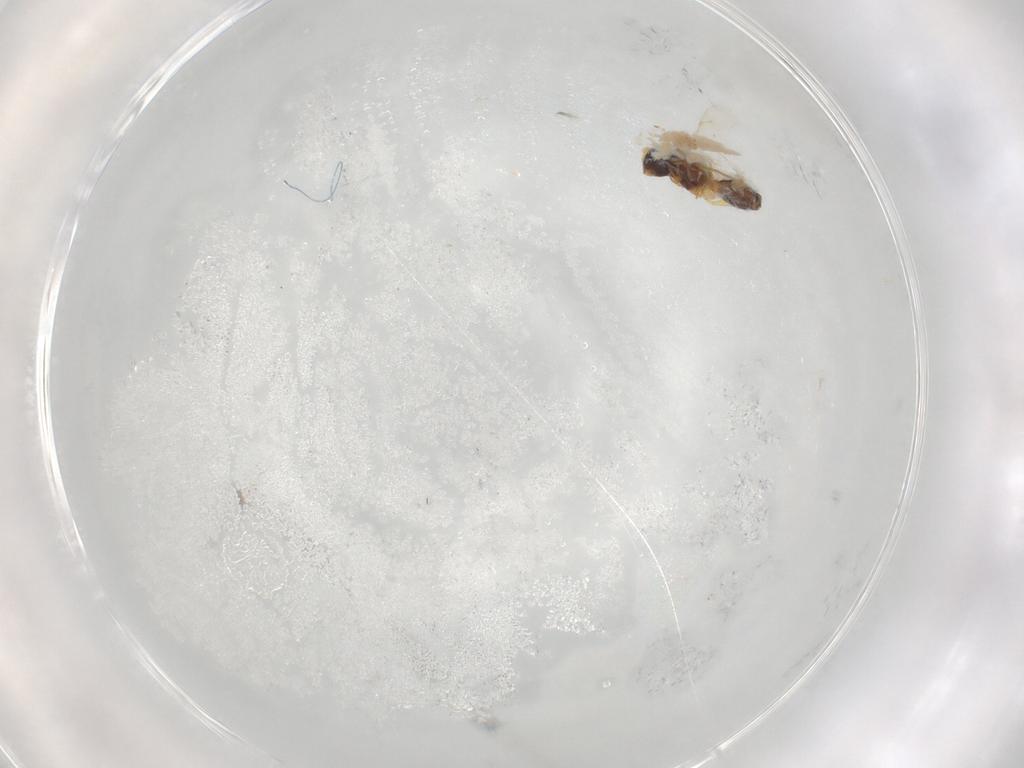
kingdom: Animalia
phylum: Arthropoda
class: Insecta
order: Hymenoptera
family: Scelionidae
